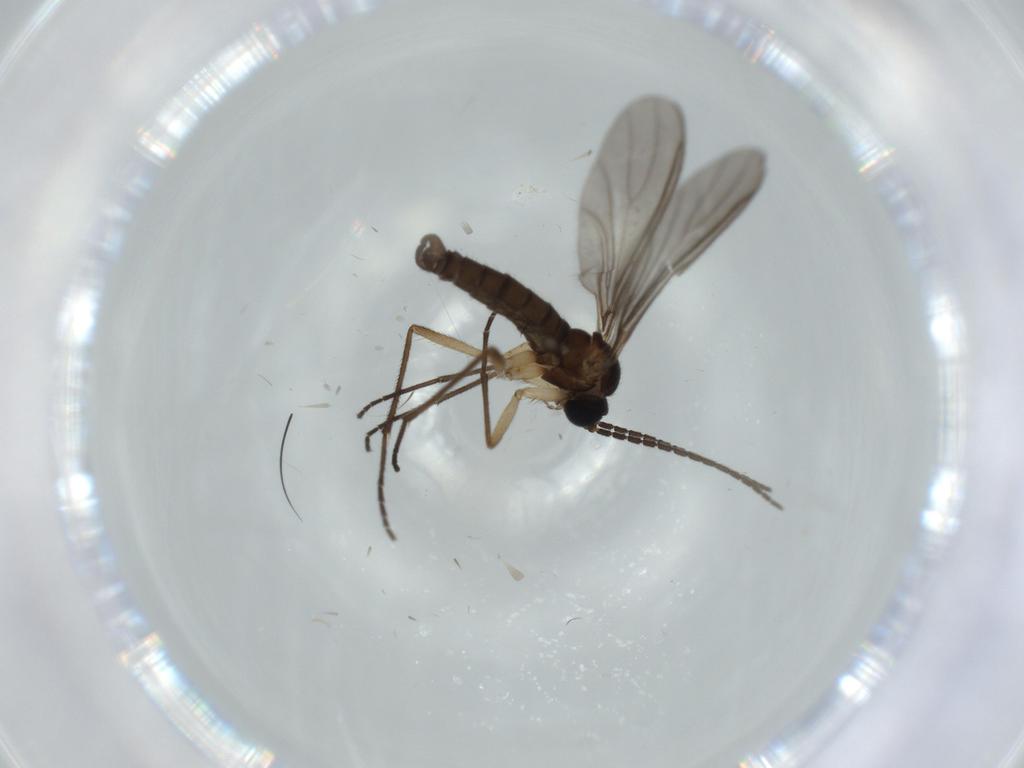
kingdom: Animalia
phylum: Arthropoda
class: Insecta
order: Diptera
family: Sciaridae
